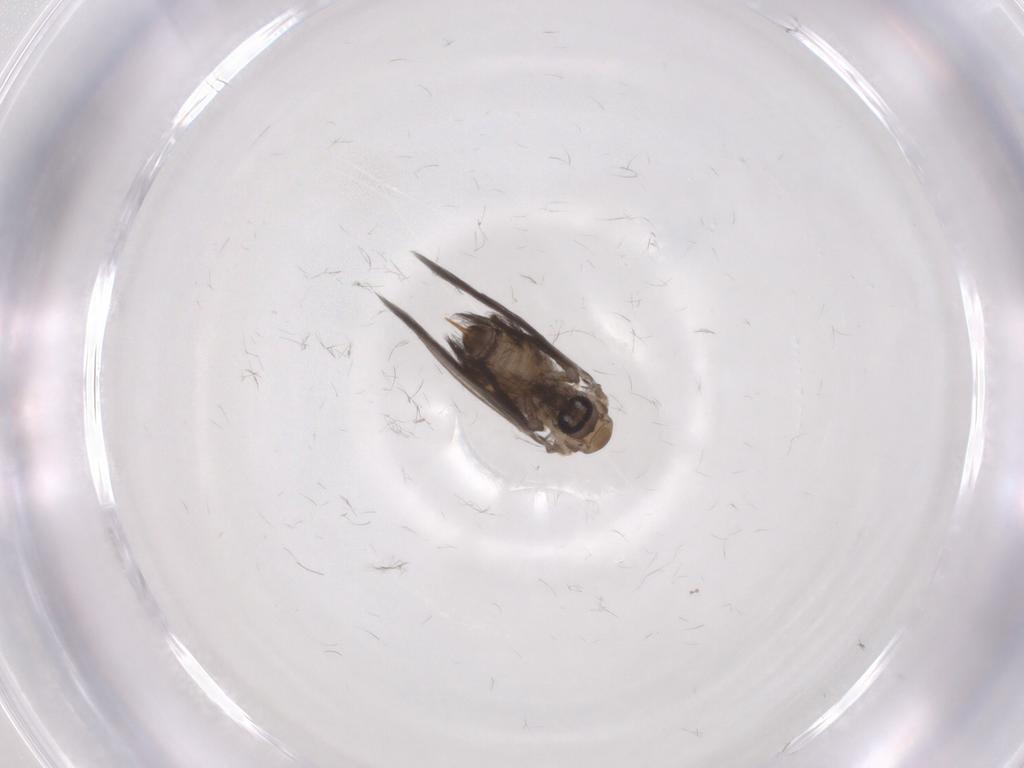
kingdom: Animalia
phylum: Arthropoda
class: Insecta
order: Diptera
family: Psychodidae
